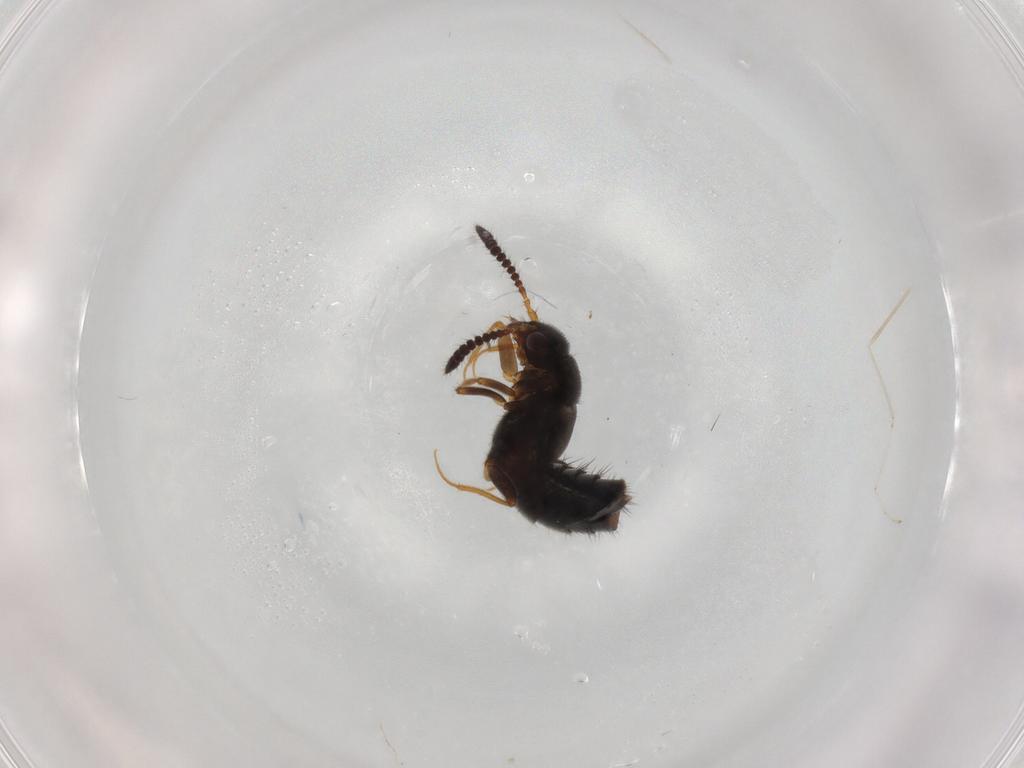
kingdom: Animalia
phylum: Arthropoda
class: Insecta
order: Coleoptera
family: Staphylinidae
